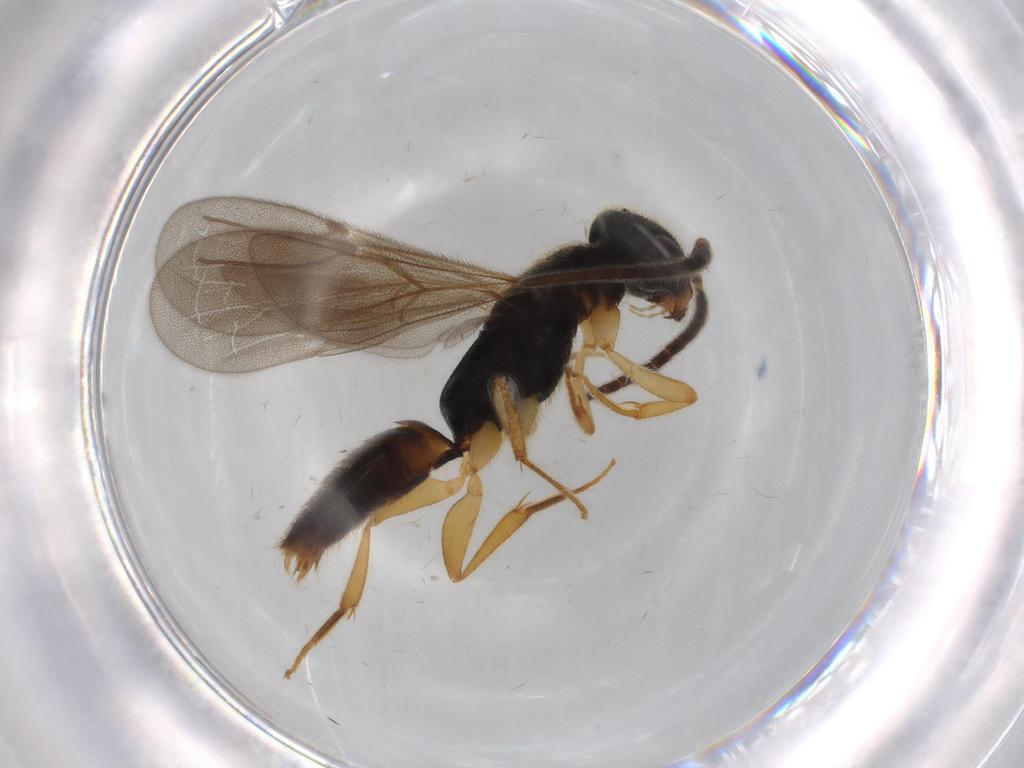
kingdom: Animalia
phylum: Arthropoda
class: Insecta
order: Hymenoptera
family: Bethylidae
